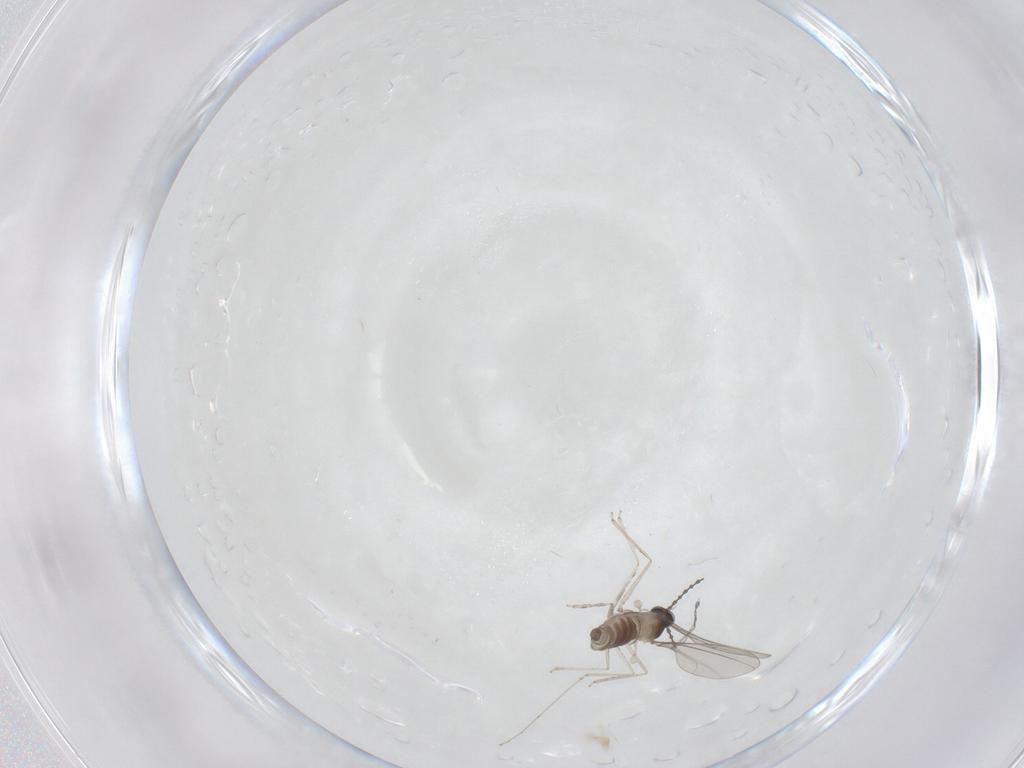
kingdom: Animalia
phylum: Arthropoda
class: Insecta
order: Diptera
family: Cecidomyiidae
